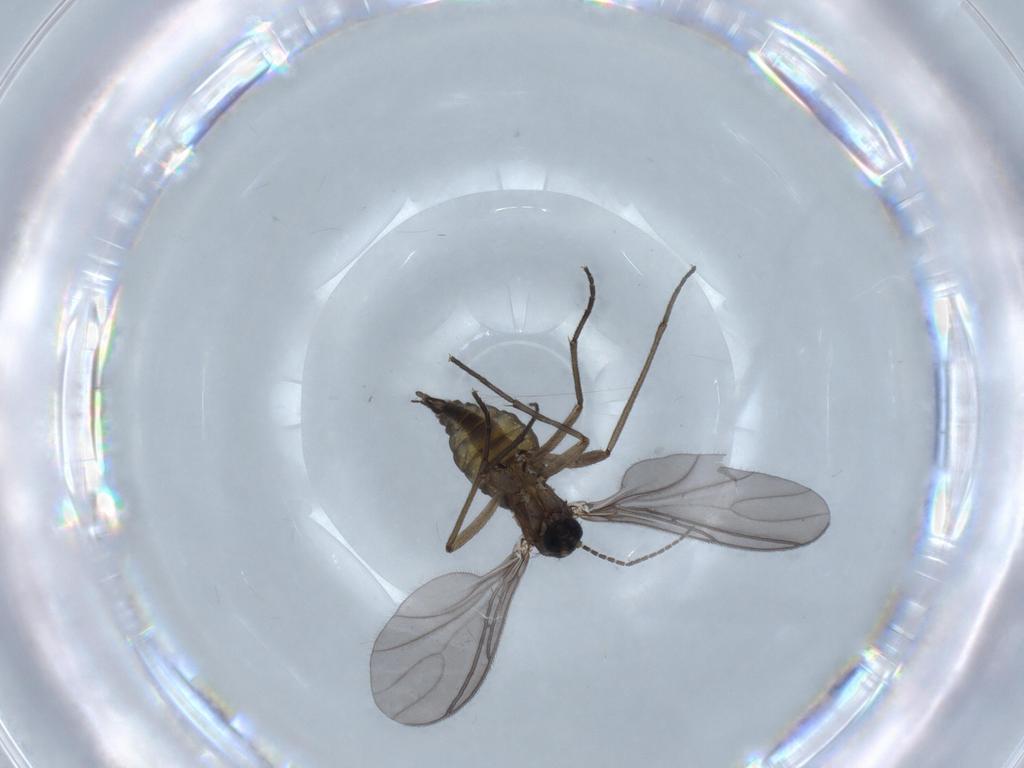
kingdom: Animalia
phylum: Arthropoda
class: Insecta
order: Diptera
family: Sciaridae
